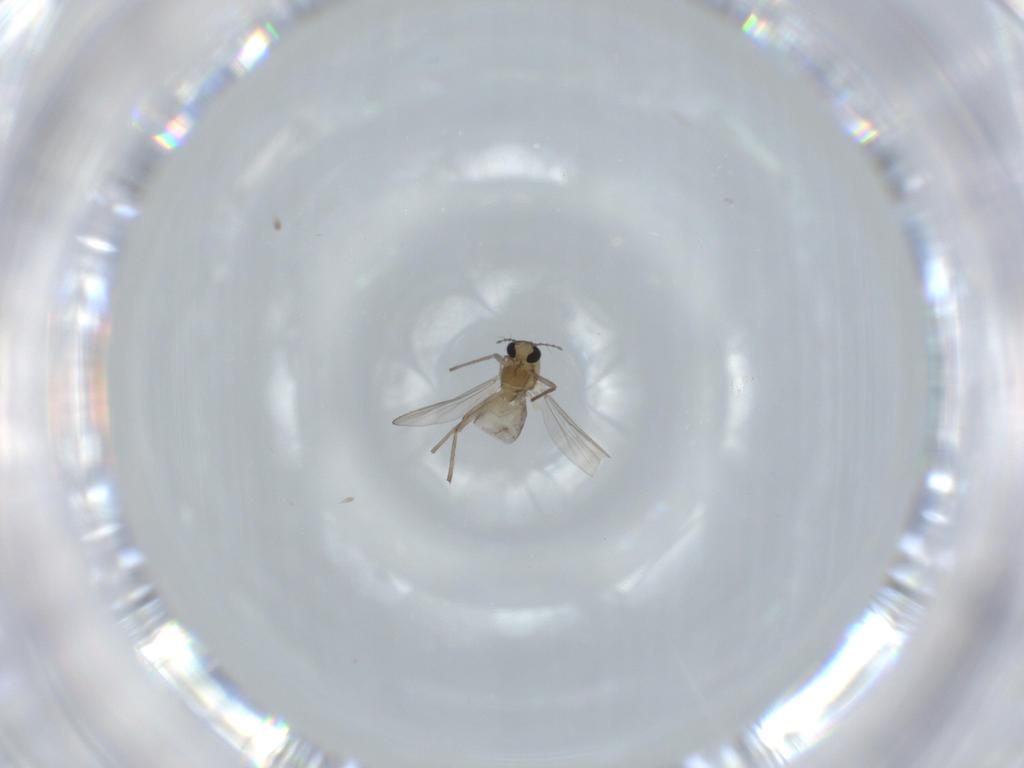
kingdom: Animalia
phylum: Arthropoda
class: Insecta
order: Diptera
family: Chironomidae
